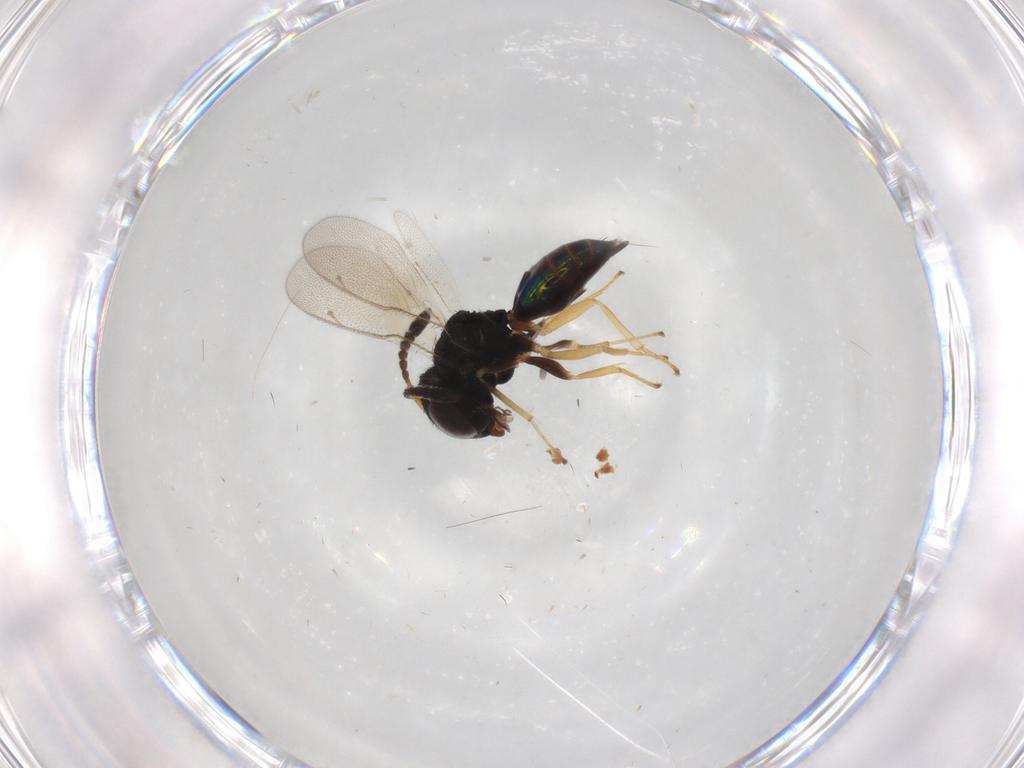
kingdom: Animalia
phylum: Arthropoda
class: Insecta
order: Hymenoptera
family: Pteromalidae
